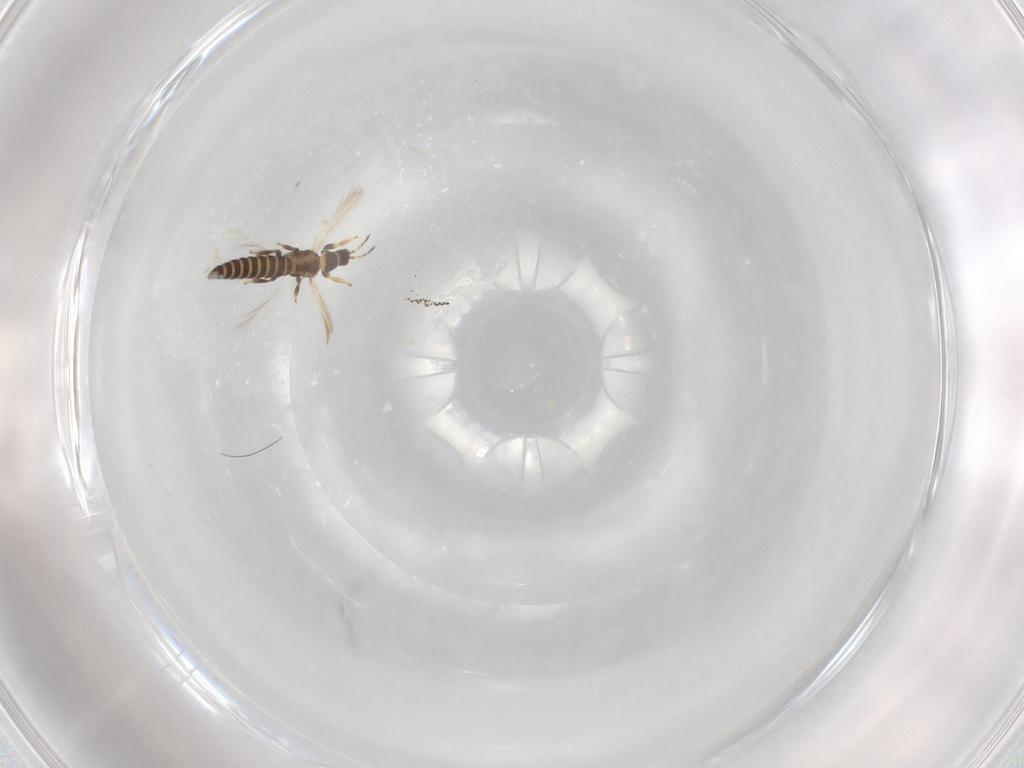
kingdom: Animalia
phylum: Arthropoda
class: Insecta
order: Thysanoptera
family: Thripidae
